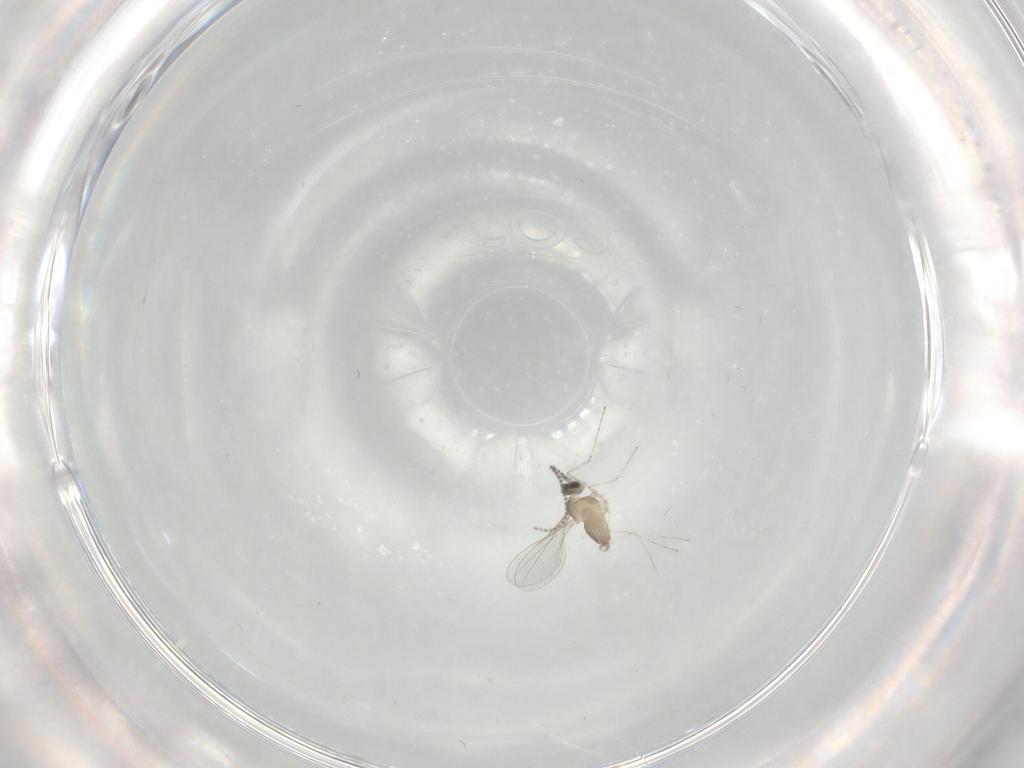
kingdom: Animalia
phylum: Arthropoda
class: Insecta
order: Diptera
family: Cecidomyiidae
